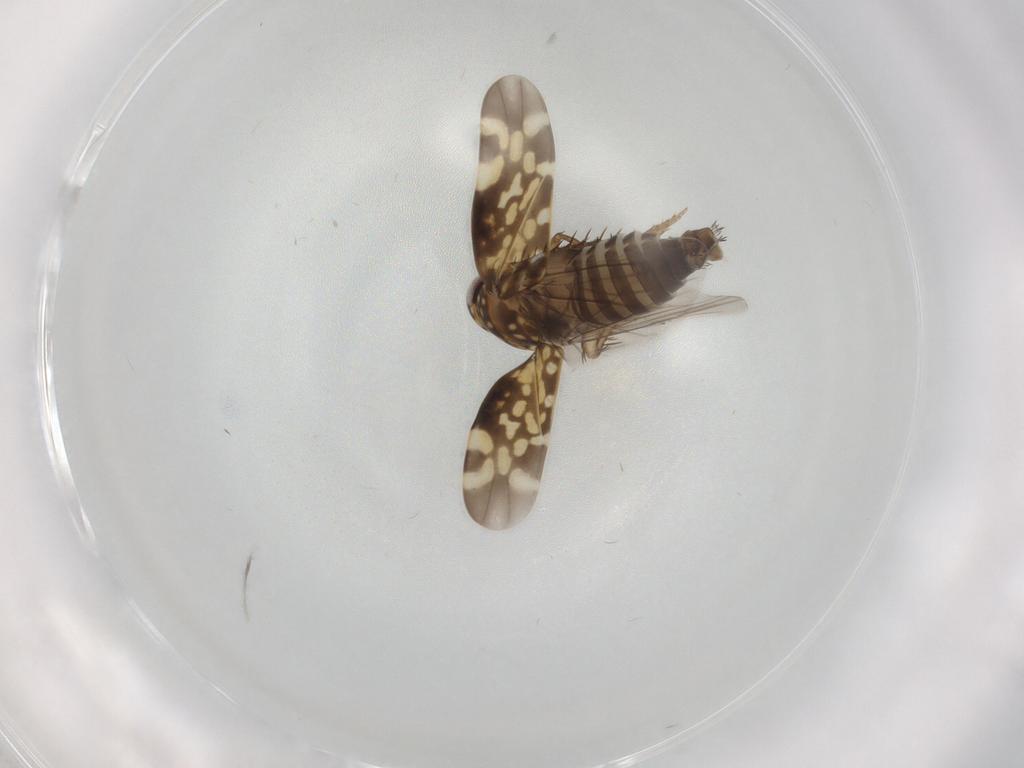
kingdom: Animalia
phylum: Arthropoda
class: Insecta
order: Hemiptera
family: Cicadellidae
